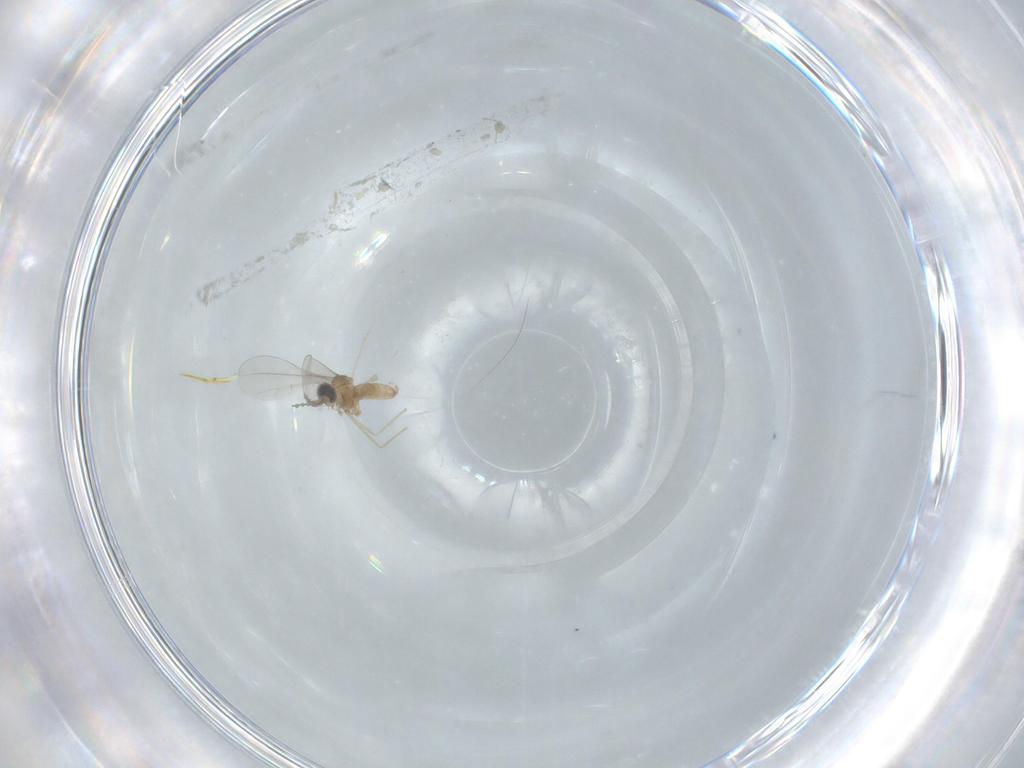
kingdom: Animalia
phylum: Arthropoda
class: Insecta
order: Diptera
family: Cecidomyiidae
